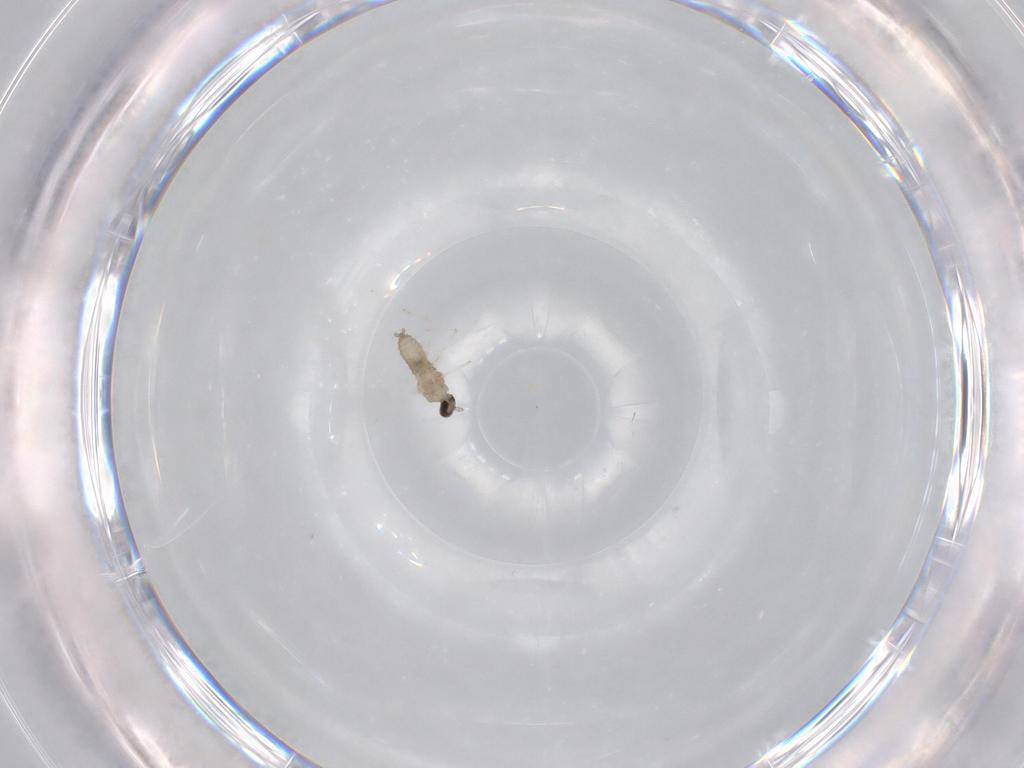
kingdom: Animalia
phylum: Arthropoda
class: Insecta
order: Diptera
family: Cecidomyiidae
